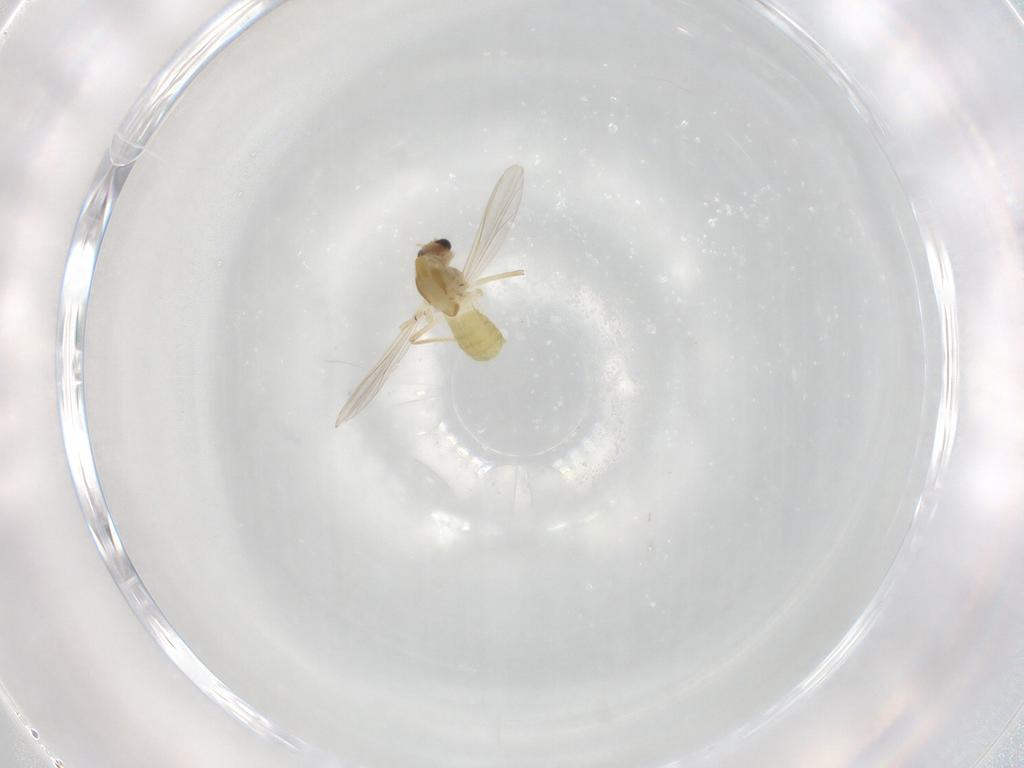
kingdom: Animalia
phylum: Arthropoda
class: Insecta
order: Diptera
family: Chironomidae
